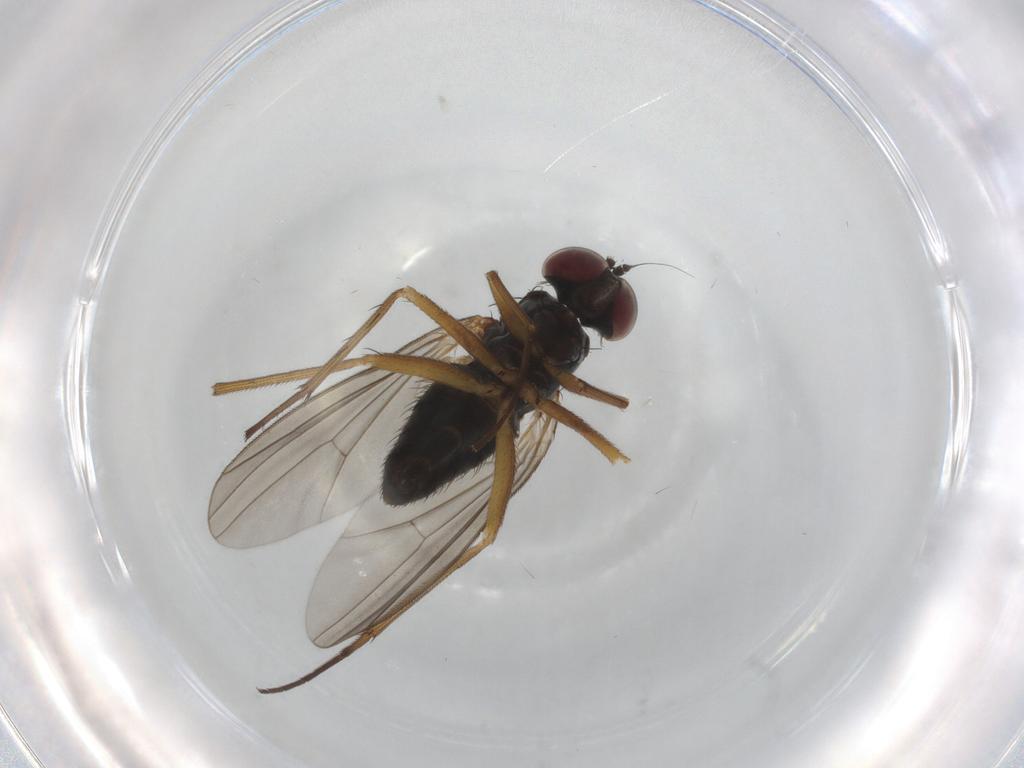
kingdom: Animalia
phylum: Arthropoda
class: Insecta
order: Diptera
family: Dolichopodidae
